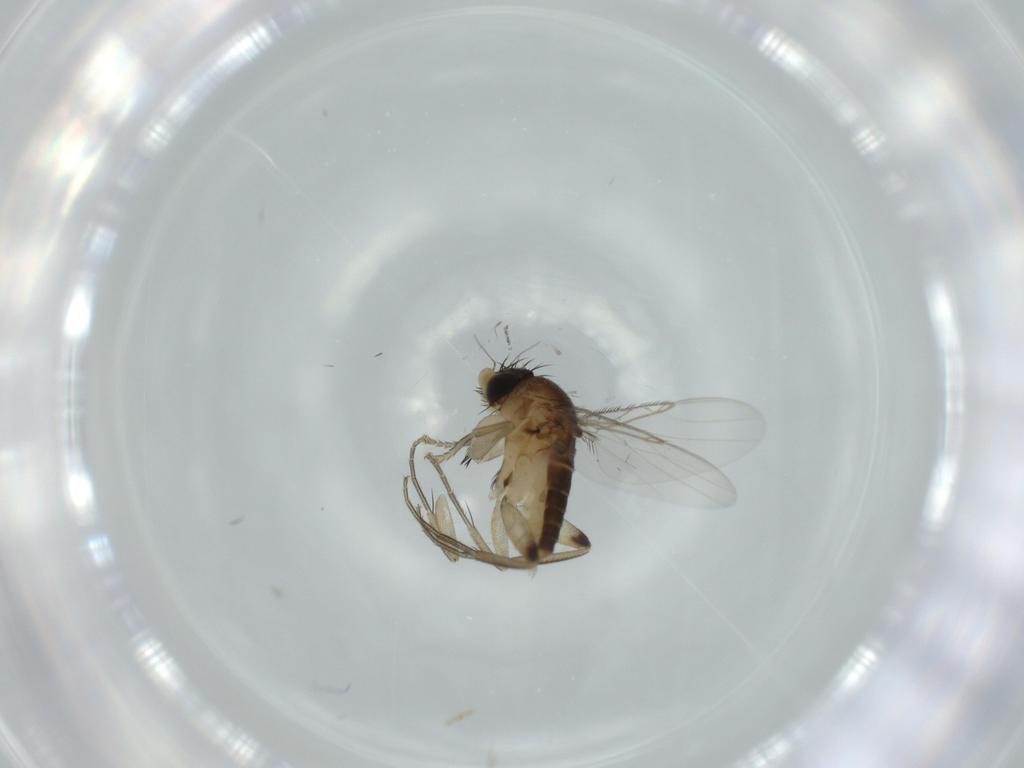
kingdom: Animalia
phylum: Arthropoda
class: Insecta
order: Diptera
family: Phoridae
